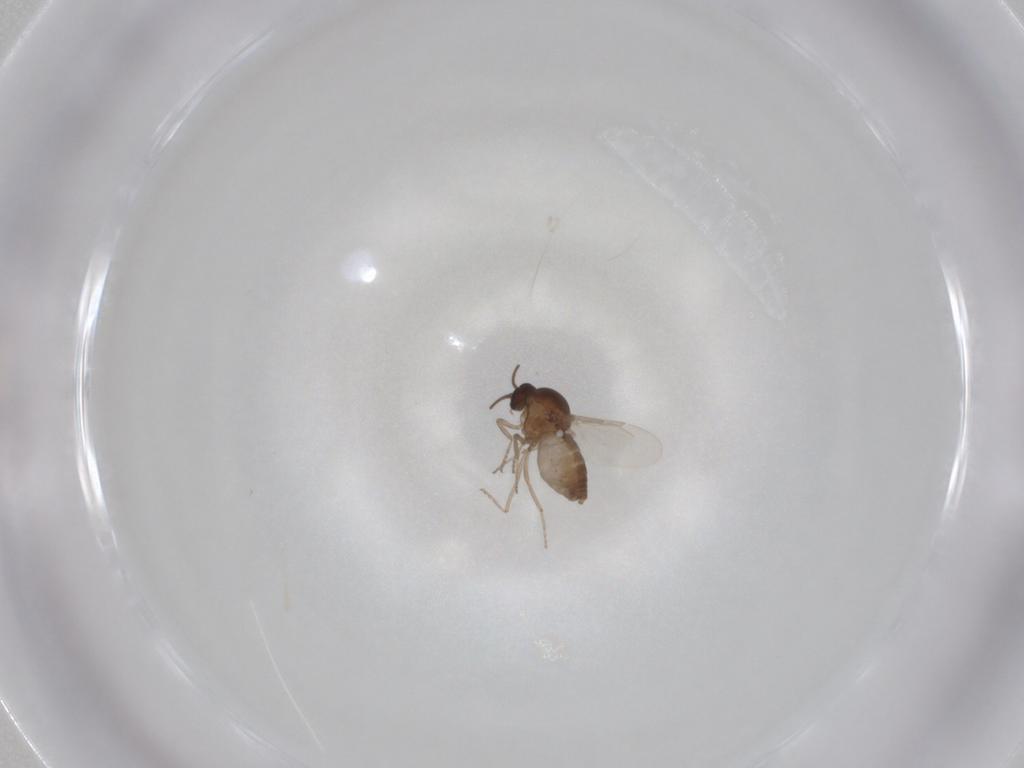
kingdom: Animalia
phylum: Arthropoda
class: Insecta
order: Diptera
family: Ceratopogonidae
